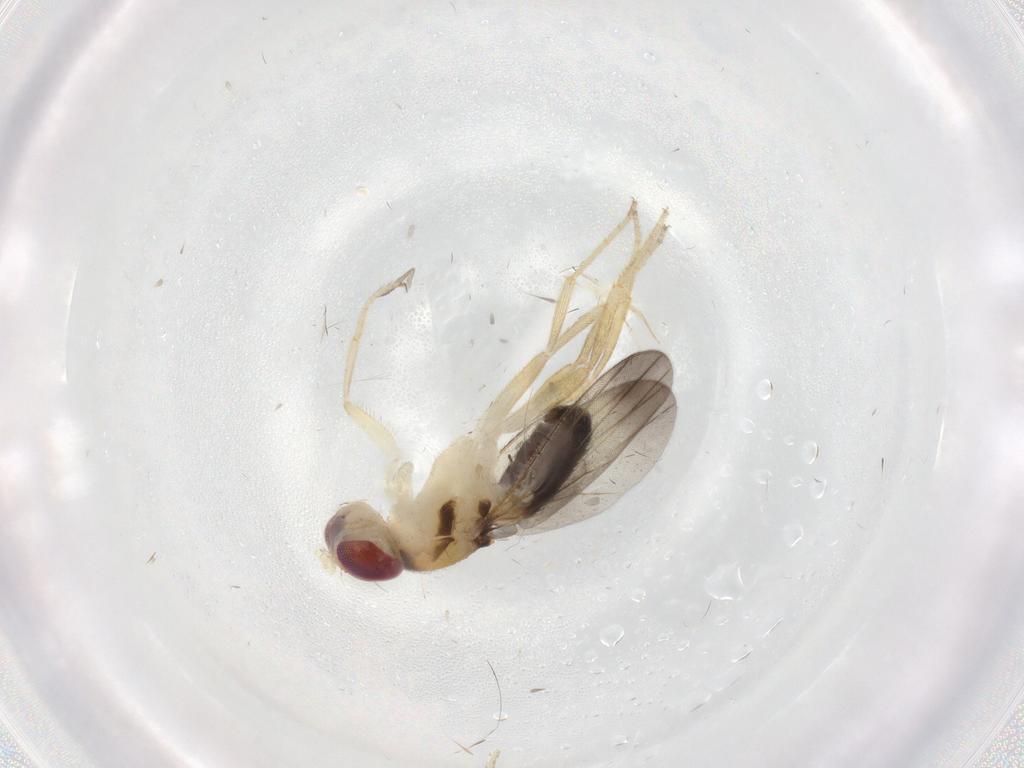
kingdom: Animalia
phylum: Arthropoda
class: Insecta
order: Diptera
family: Clusiidae
